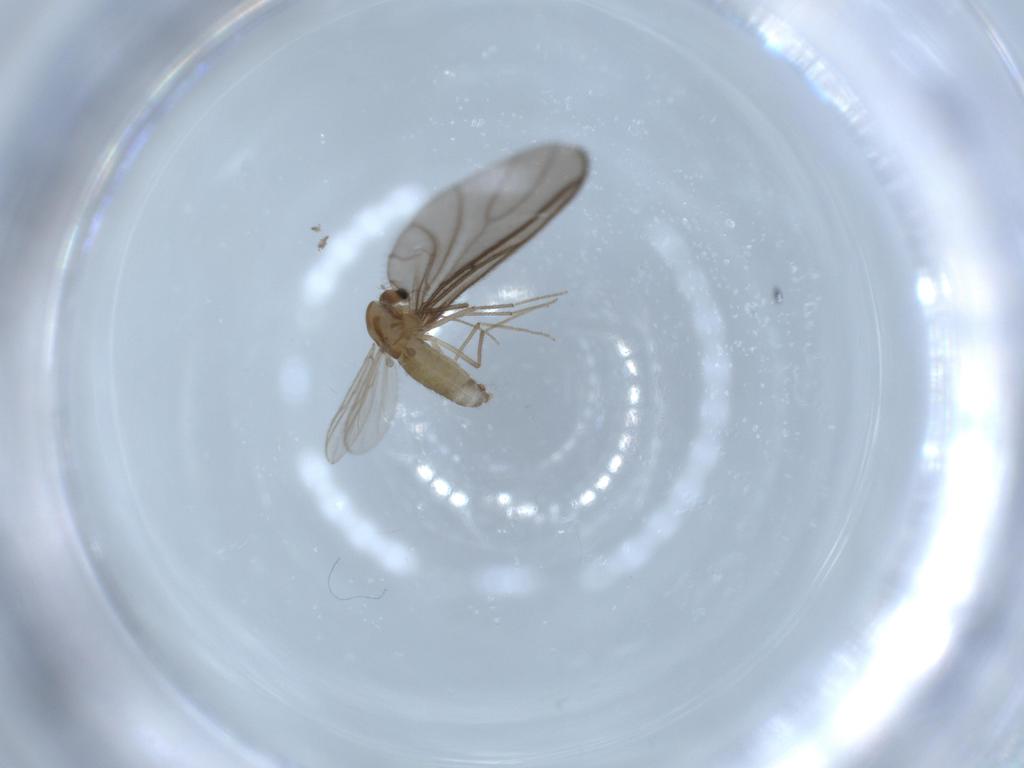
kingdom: Animalia
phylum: Arthropoda
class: Insecta
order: Diptera
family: Chironomidae
